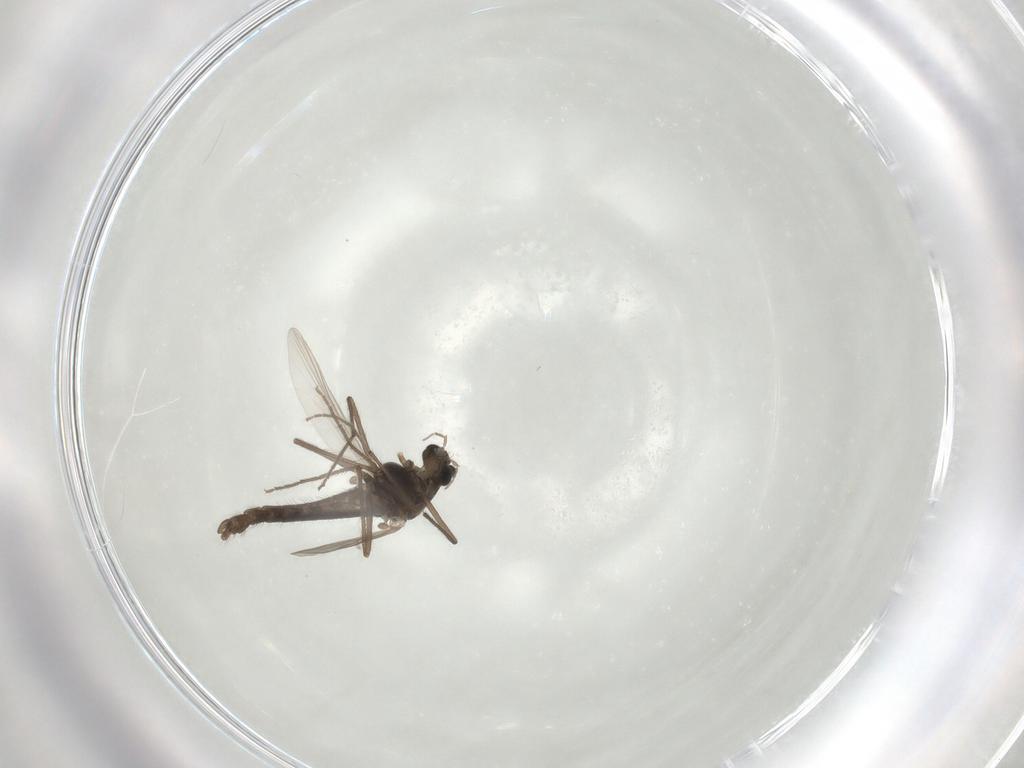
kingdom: Animalia
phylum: Arthropoda
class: Insecta
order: Diptera
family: Chironomidae
